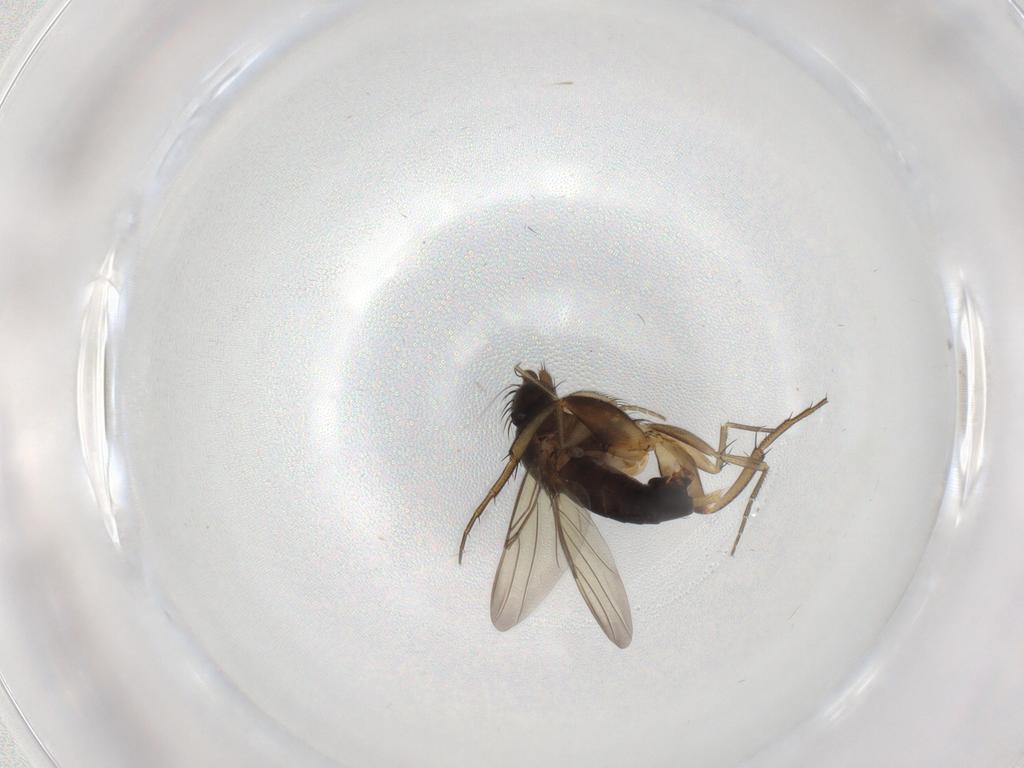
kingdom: Animalia
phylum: Arthropoda
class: Insecta
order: Diptera
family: Phoridae
